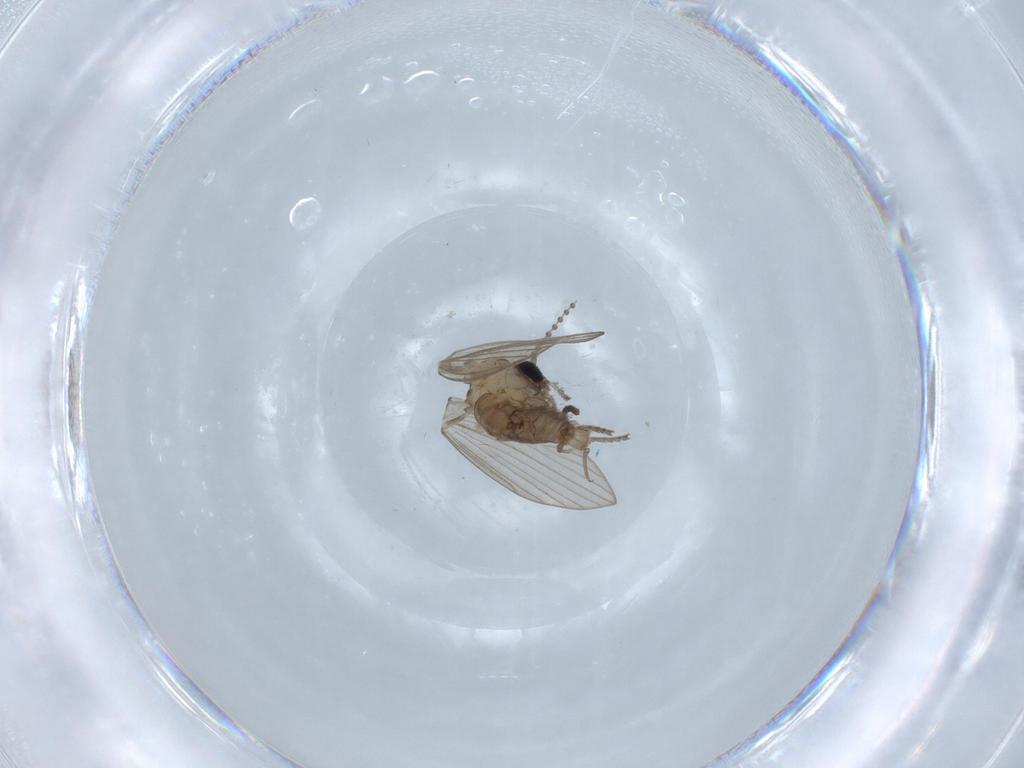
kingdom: Animalia
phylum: Arthropoda
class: Insecta
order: Diptera
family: Psychodidae
